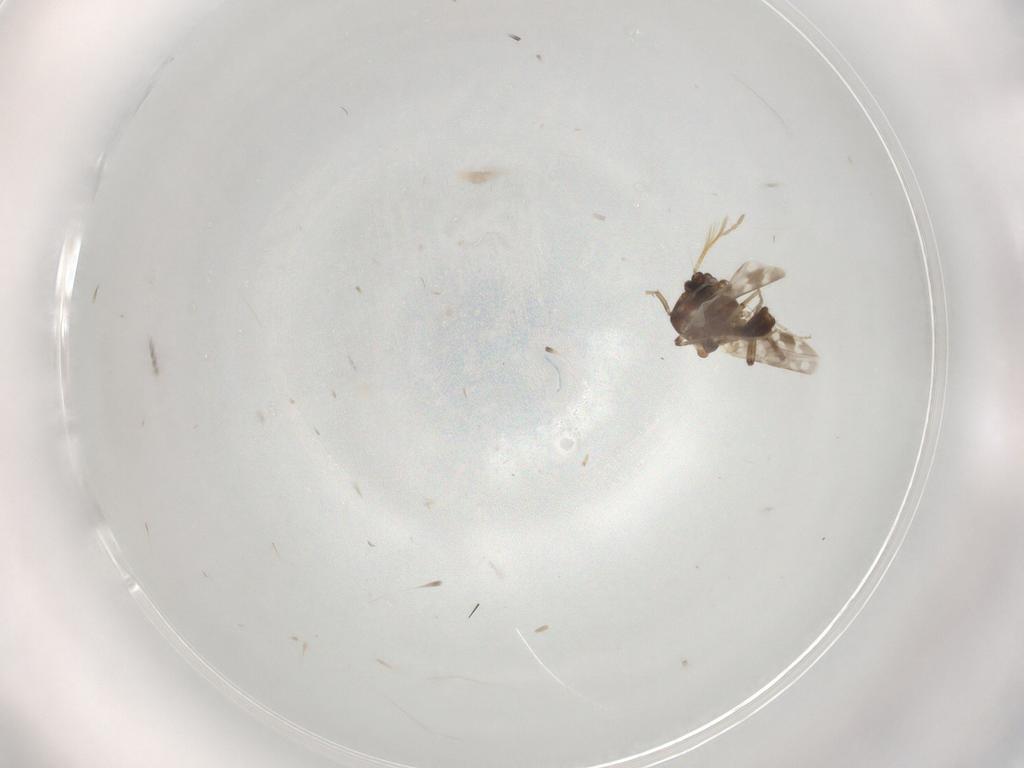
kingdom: Animalia
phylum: Arthropoda
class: Insecta
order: Diptera
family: Ceratopogonidae
